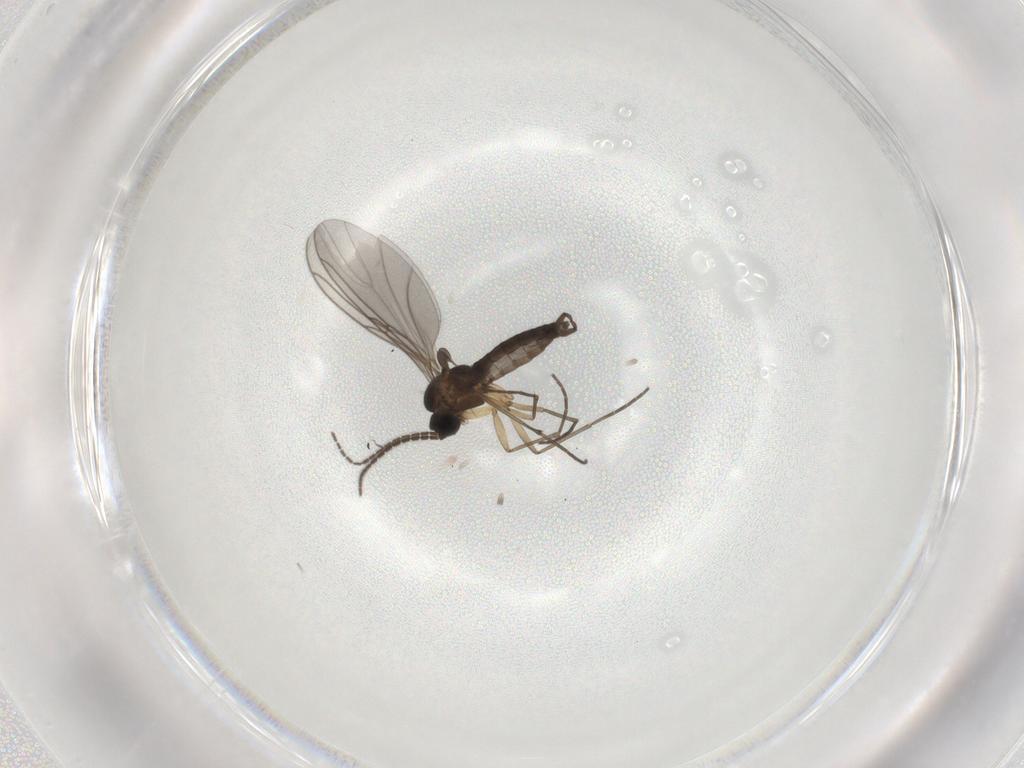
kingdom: Animalia
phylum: Arthropoda
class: Insecta
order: Diptera
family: Sciaridae
